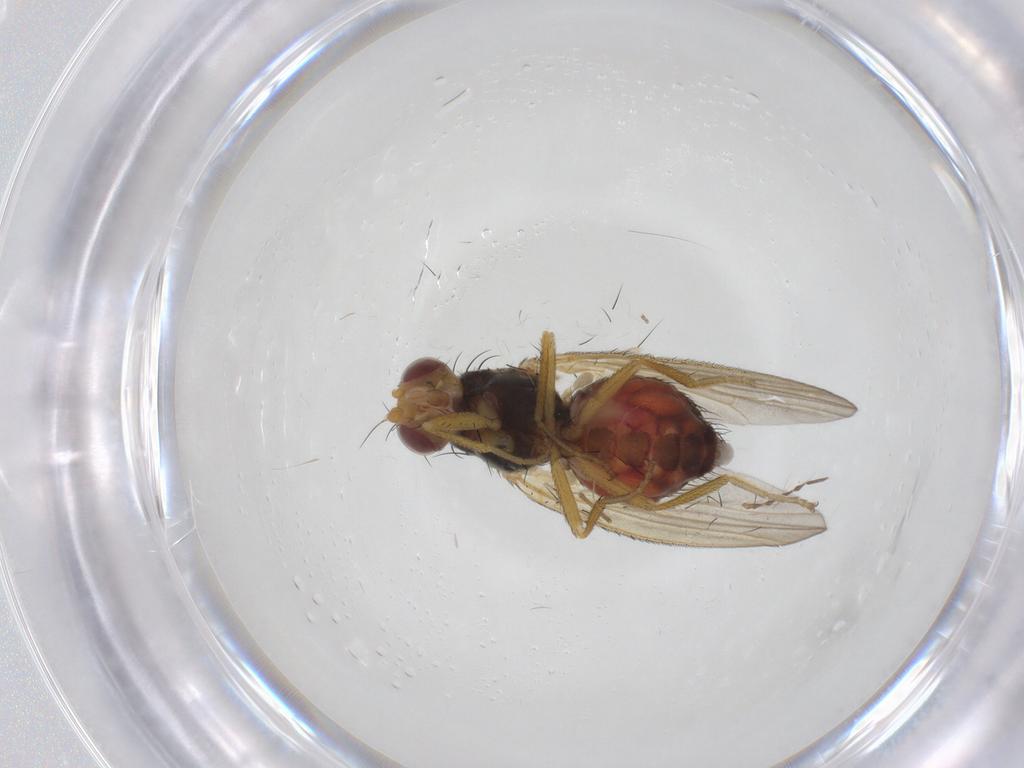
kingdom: Animalia
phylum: Arthropoda
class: Insecta
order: Diptera
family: Heleomyzidae
